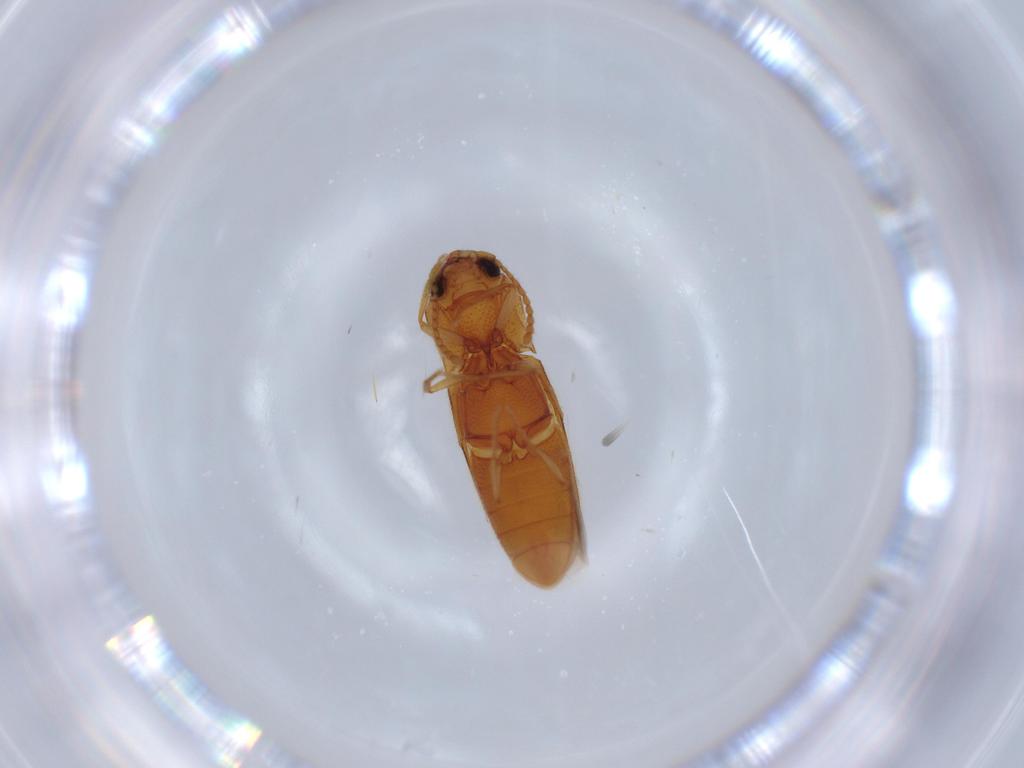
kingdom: Animalia
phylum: Arthropoda
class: Insecta
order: Coleoptera
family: Elateridae
